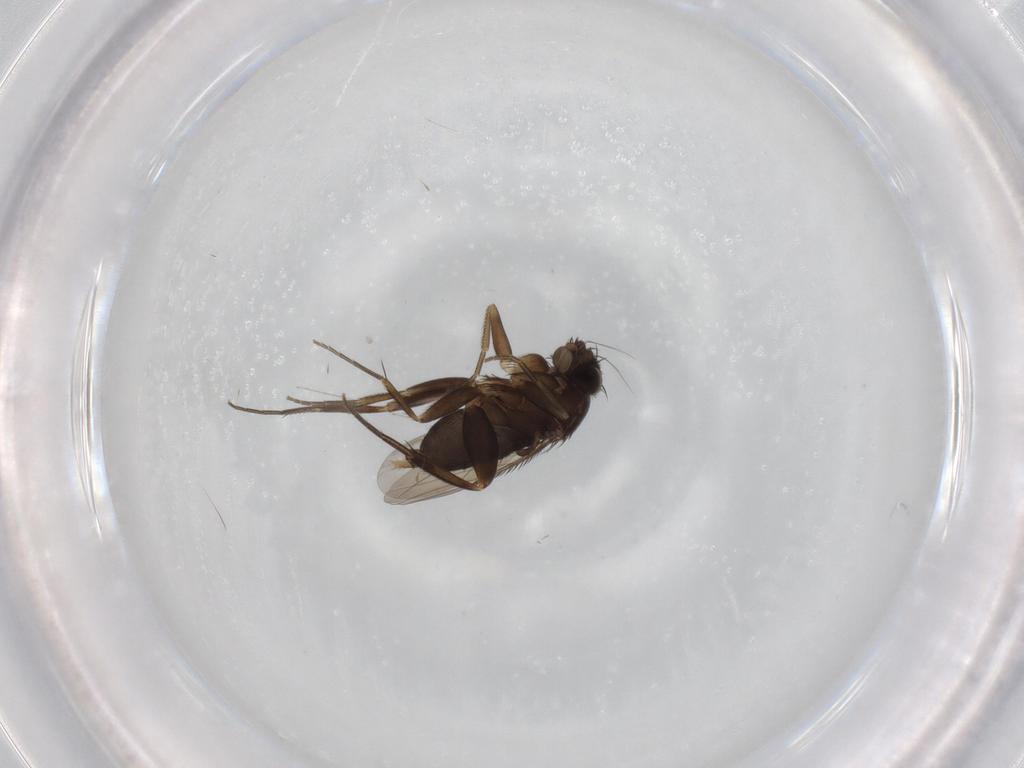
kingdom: Animalia
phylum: Arthropoda
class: Insecta
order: Diptera
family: Phoridae
